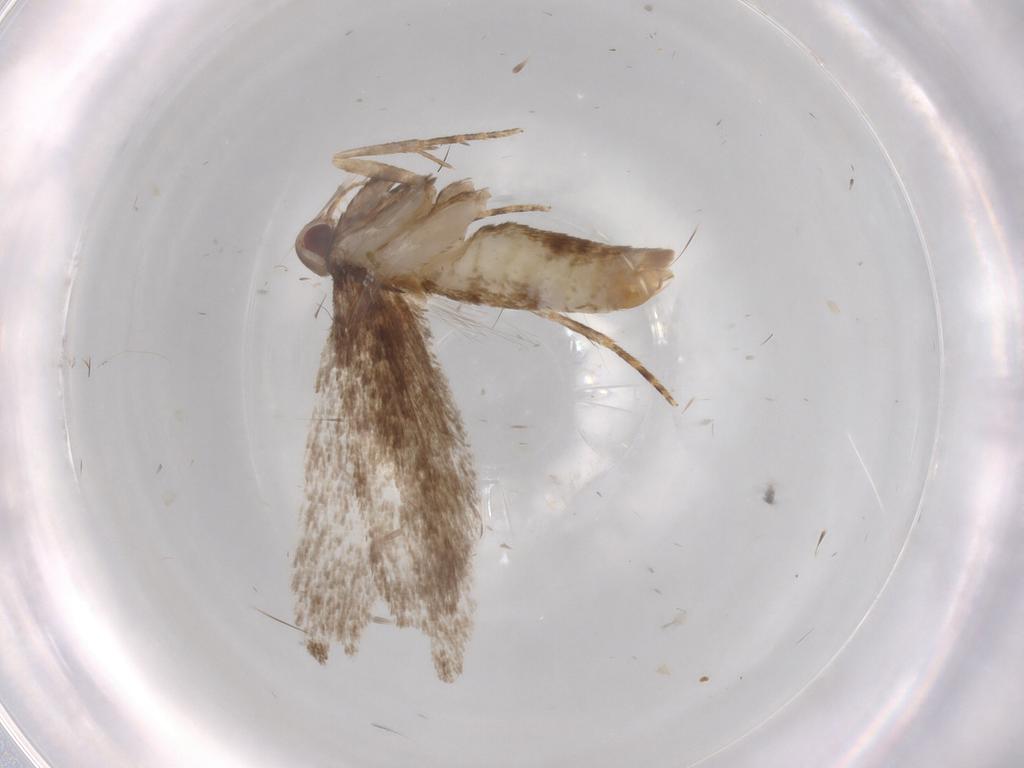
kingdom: Animalia
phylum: Arthropoda
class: Insecta
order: Lepidoptera
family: Gelechiidae
